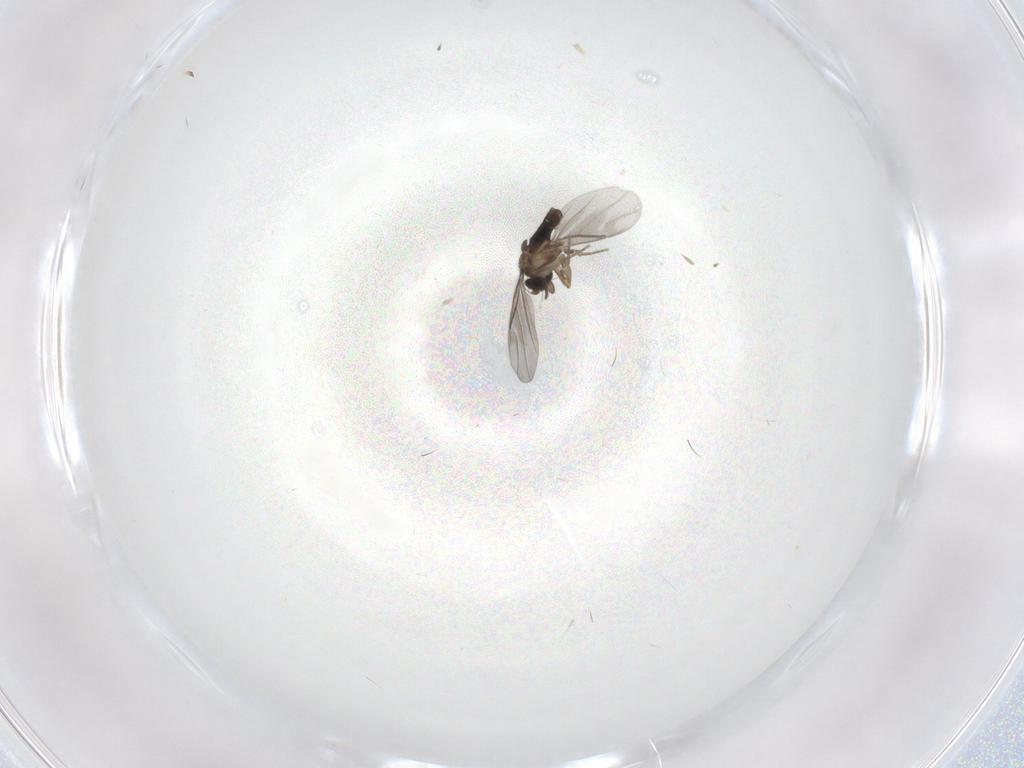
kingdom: Animalia
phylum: Arthropoda
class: Insecta
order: Diptera
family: Phoridae
